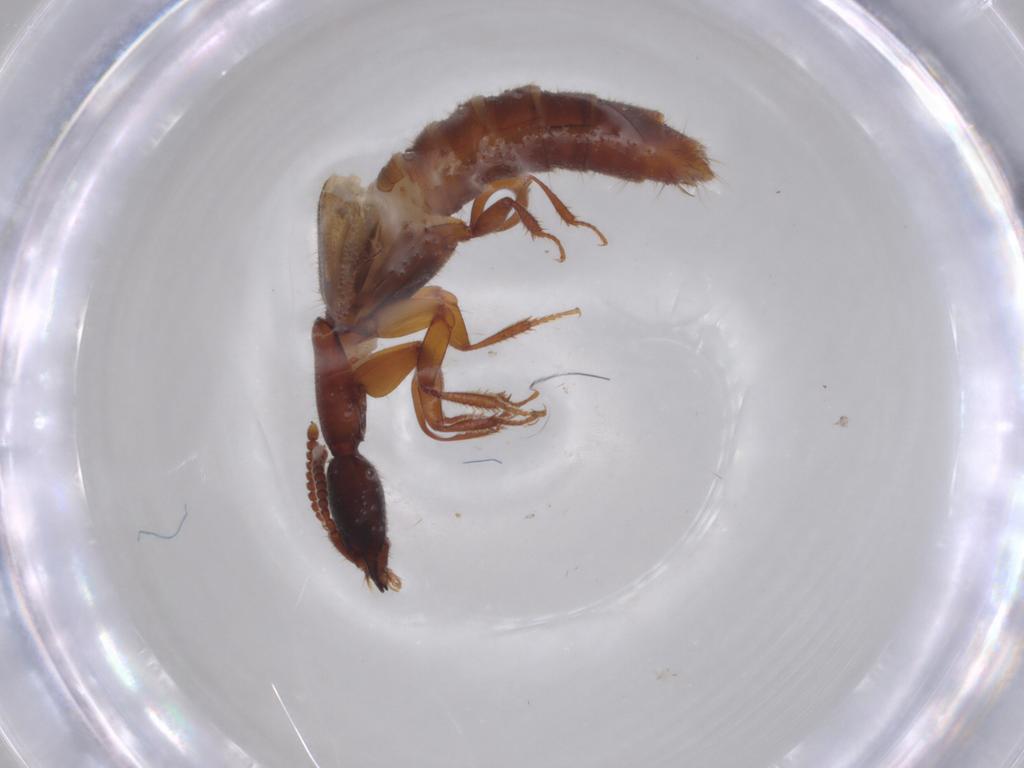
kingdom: Animalia
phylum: Arthropoda
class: Insecta
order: Coleoptera
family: Staphylinidae
